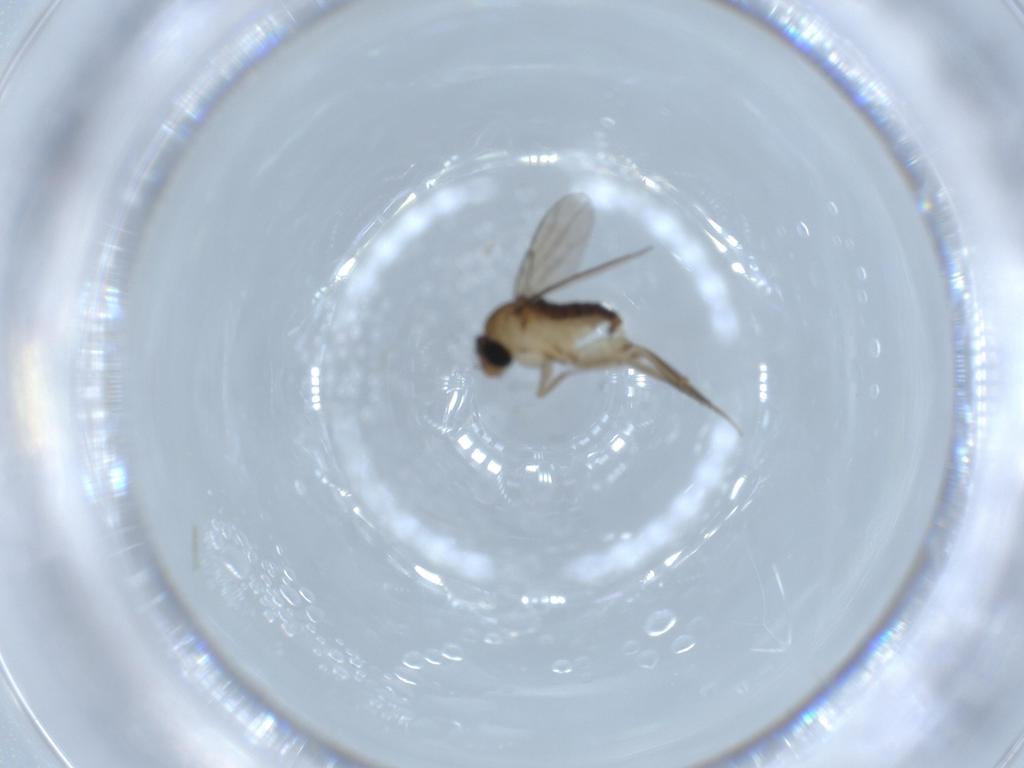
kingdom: Animalia
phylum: Arthropoda
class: Insecta
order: Diptera
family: Phoridae
